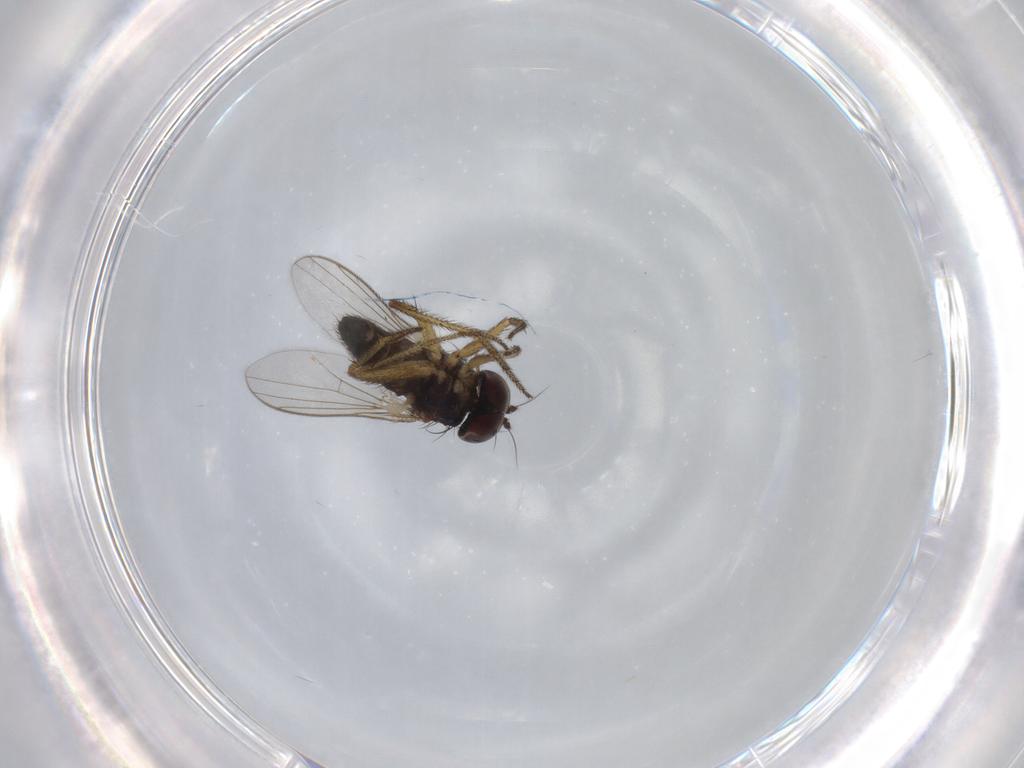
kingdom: Animalia
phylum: Arthropoda
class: Insecta
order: Diptera
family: Dolichopodidae
